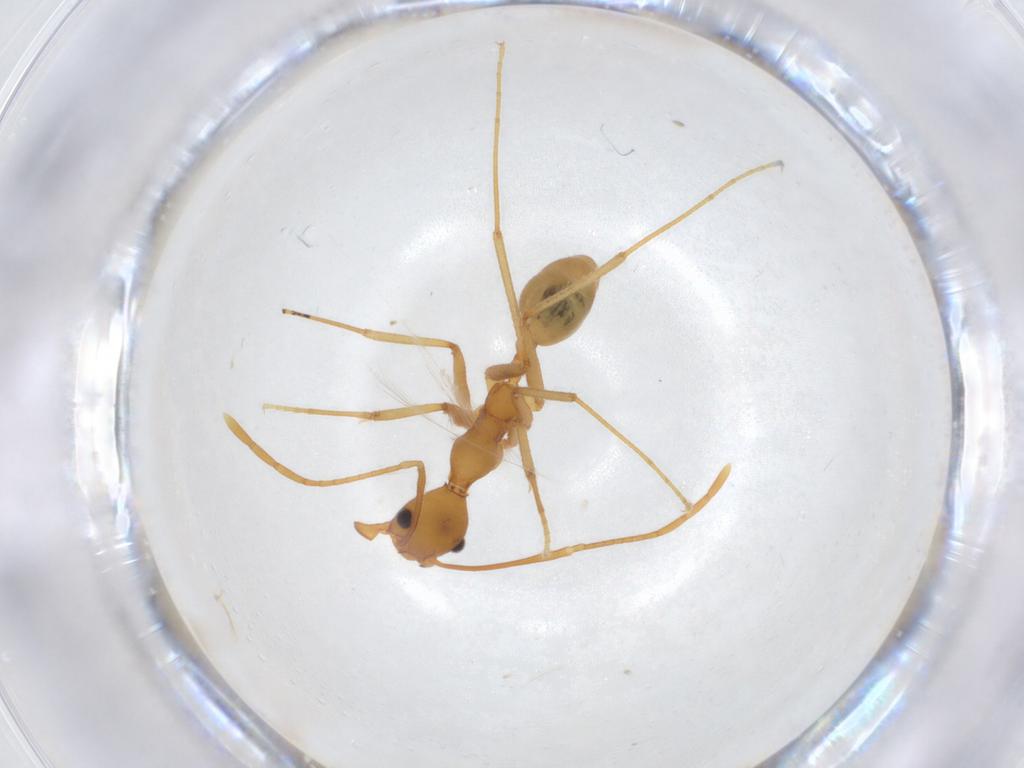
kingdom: Animalia
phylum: Arthropoda
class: Insecta
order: Hymenoptera
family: Formicidae
